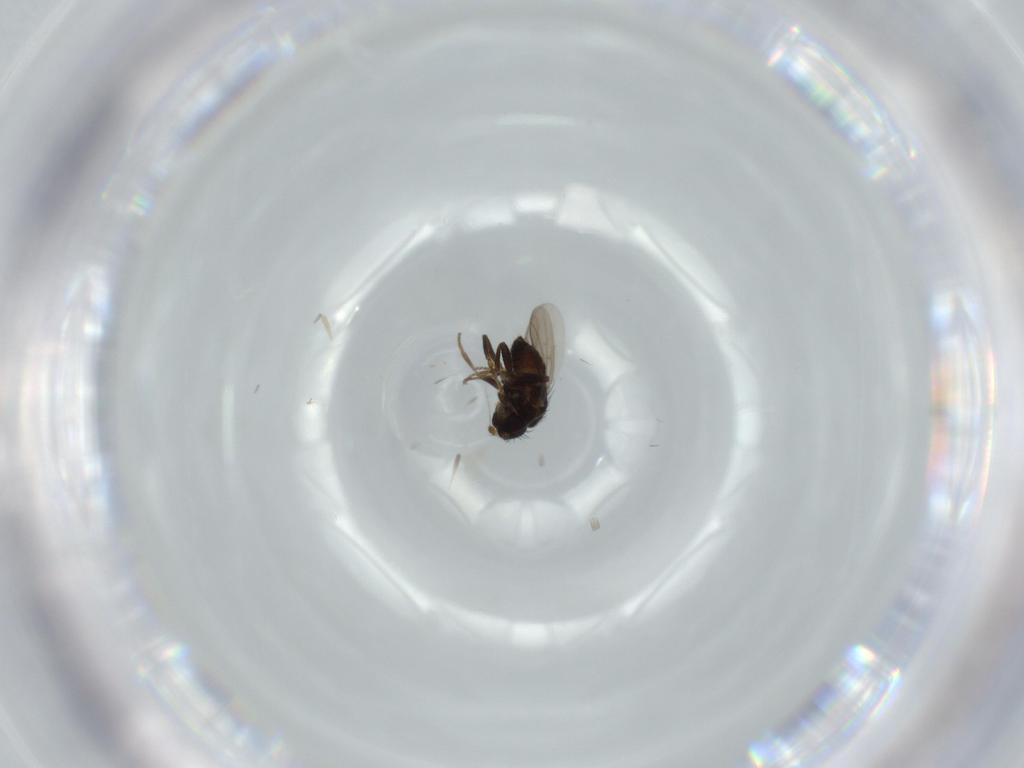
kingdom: Animalia
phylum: Arthropoda
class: Insecta
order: Diptera
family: Sphaeroceridae
